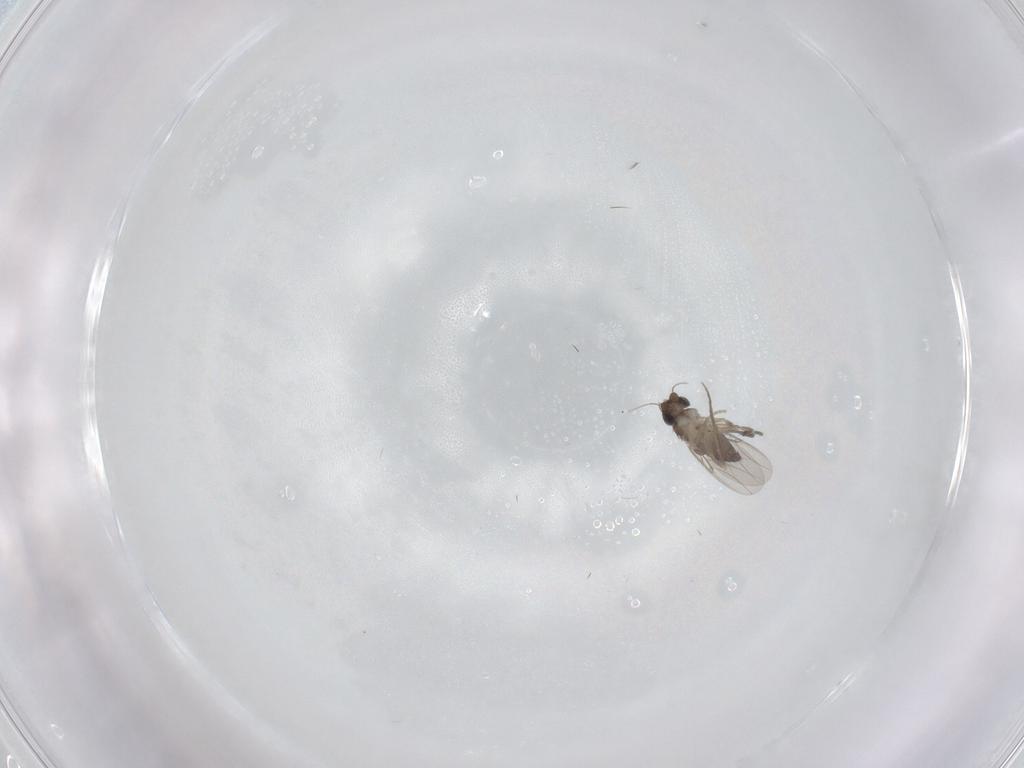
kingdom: Animalia
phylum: Arthropoda
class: Insecta
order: Diptera
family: Phoridae
